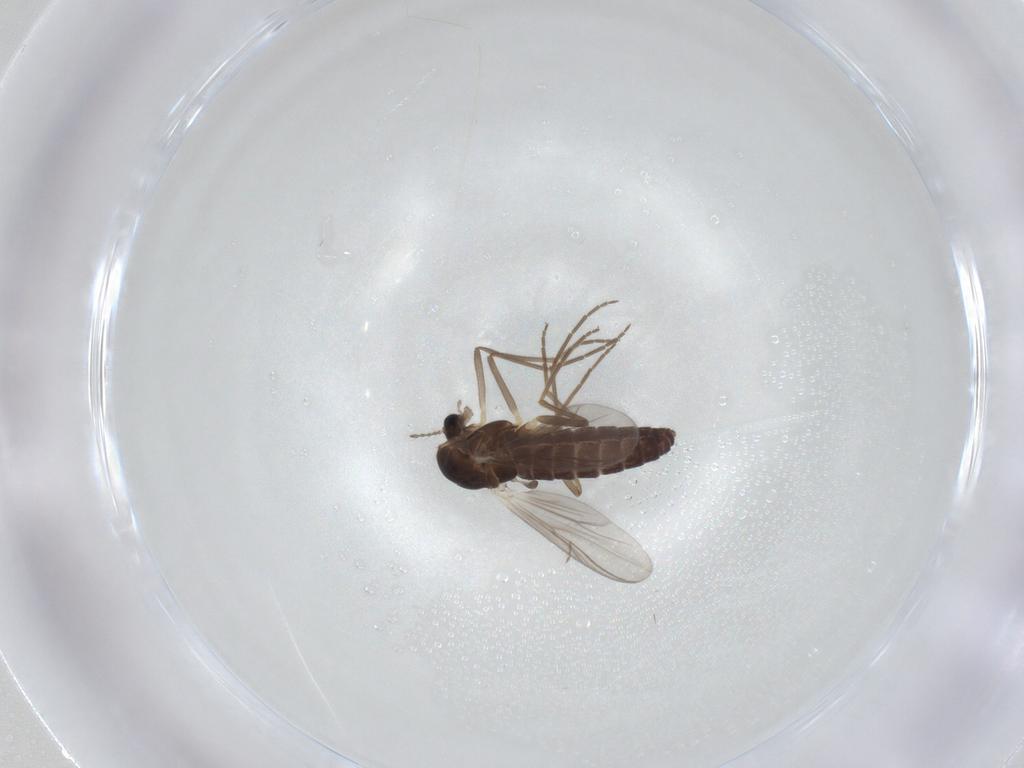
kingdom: Animalia
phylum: Arthropoda
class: Insecta
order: Diptera
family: Chironomidae
